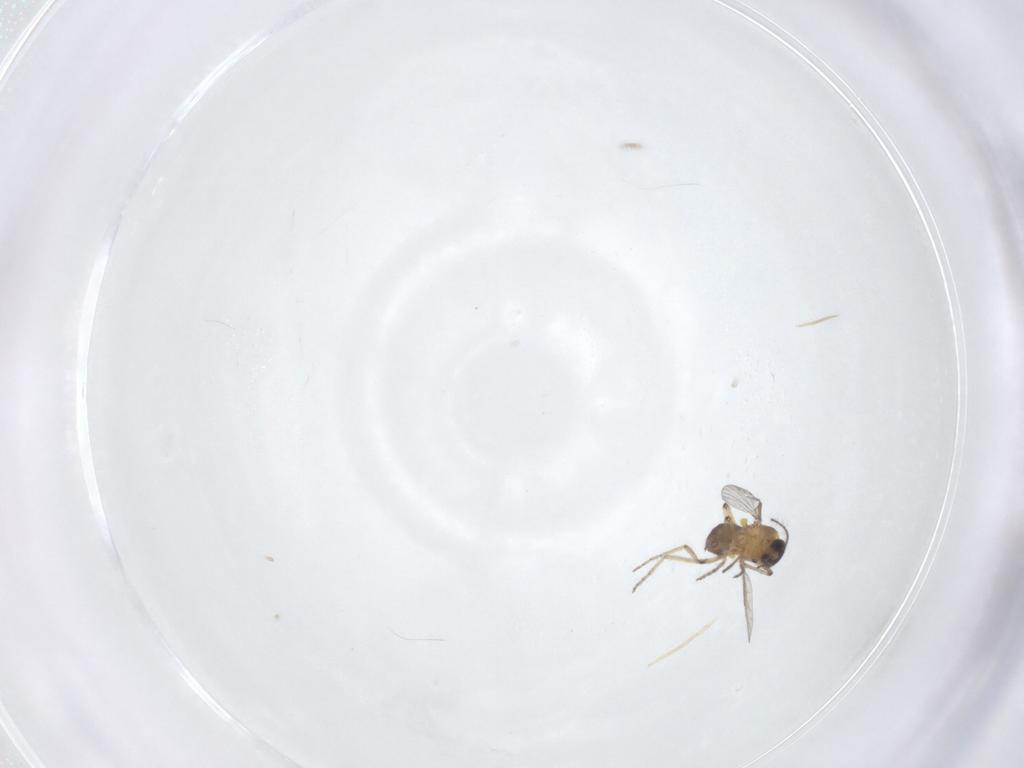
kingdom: Animalia
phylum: Arthropoda
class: Insecta
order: Diptera
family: Ceratopogonidae
